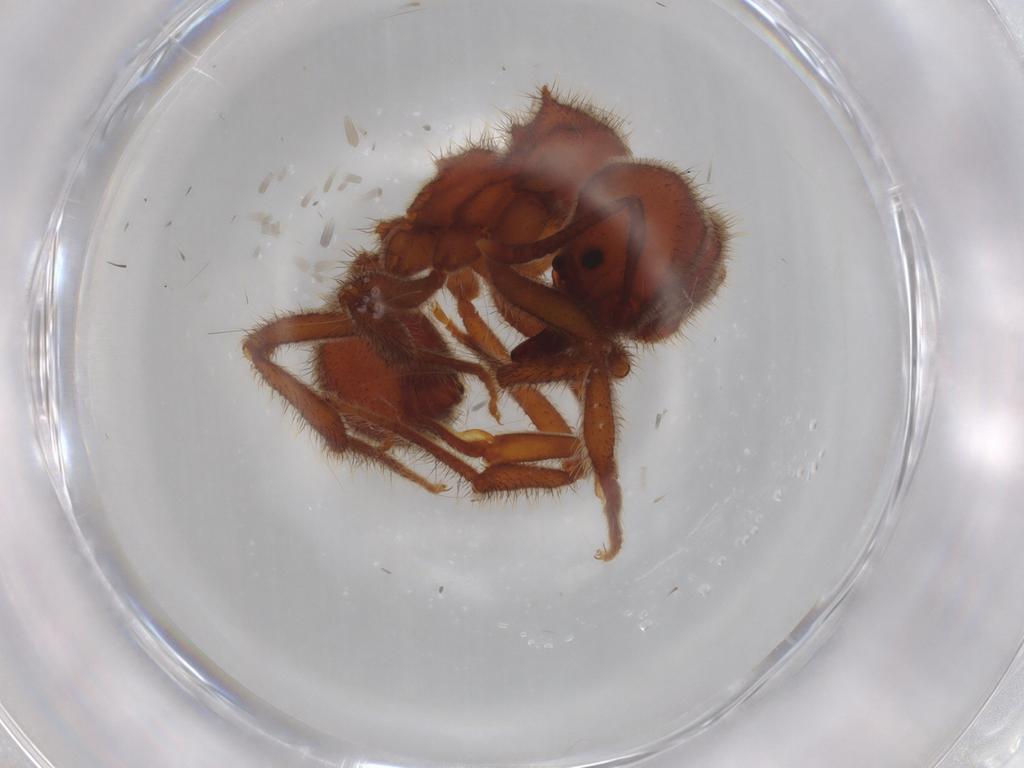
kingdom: Animalia
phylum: Arthropoda
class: Insecta
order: Hymenoptera
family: Formicidae
